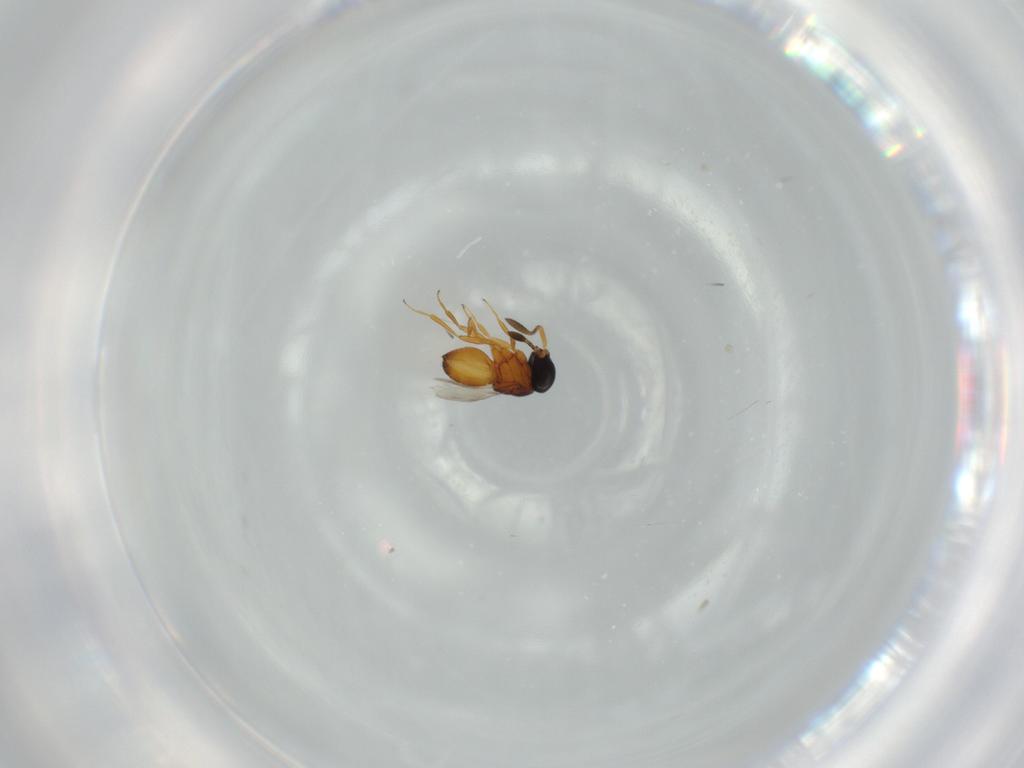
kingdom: Animalia
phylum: Arthropoda
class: Insecta
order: Hymenoptera
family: Scelionidae
